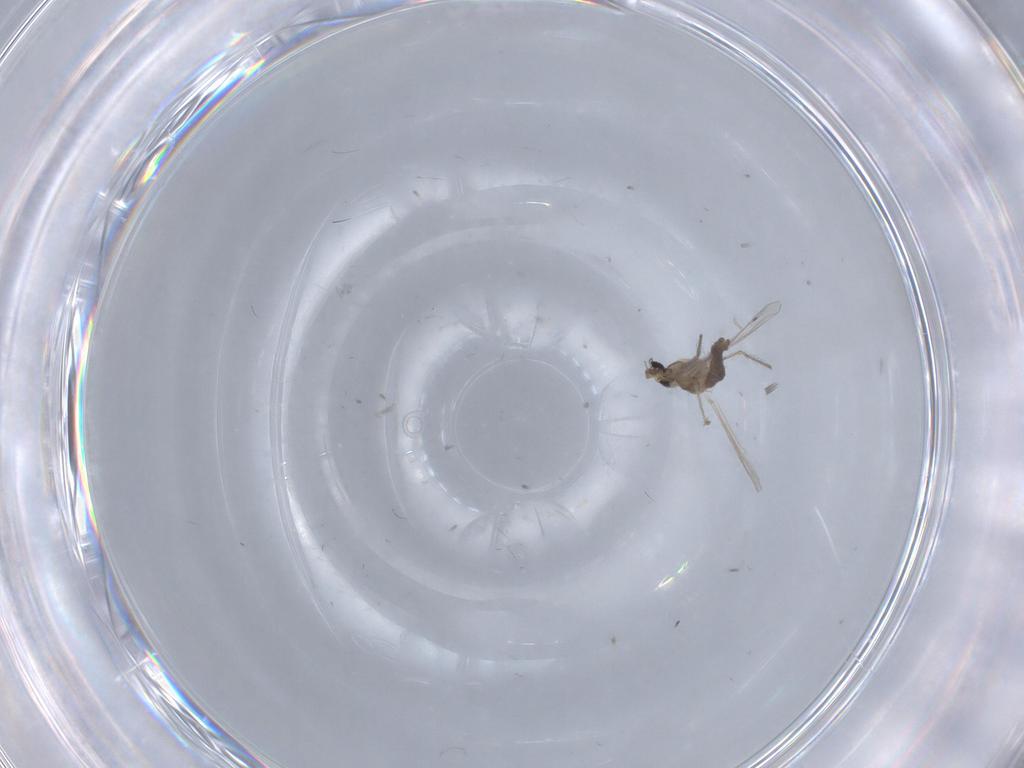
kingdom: Animalia
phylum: Arthropoda
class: Insecta
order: Diptera
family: Chironomidae
